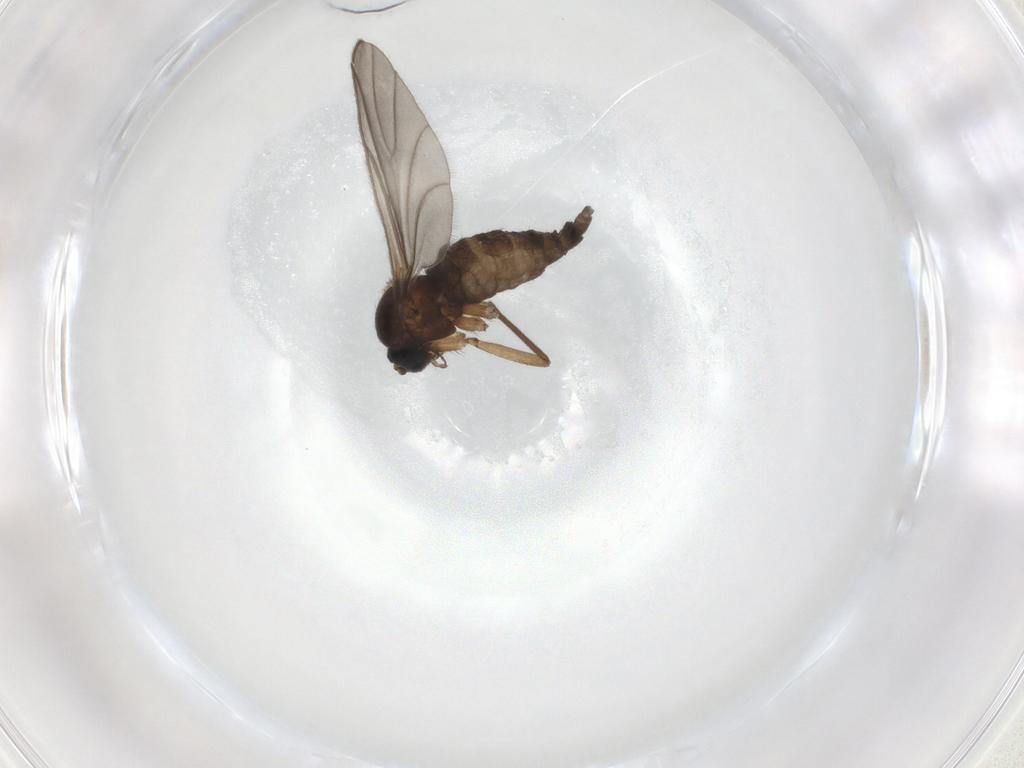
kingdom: Animalia
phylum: Arthropoda
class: Insecta
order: Diptera
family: Sciaridae
